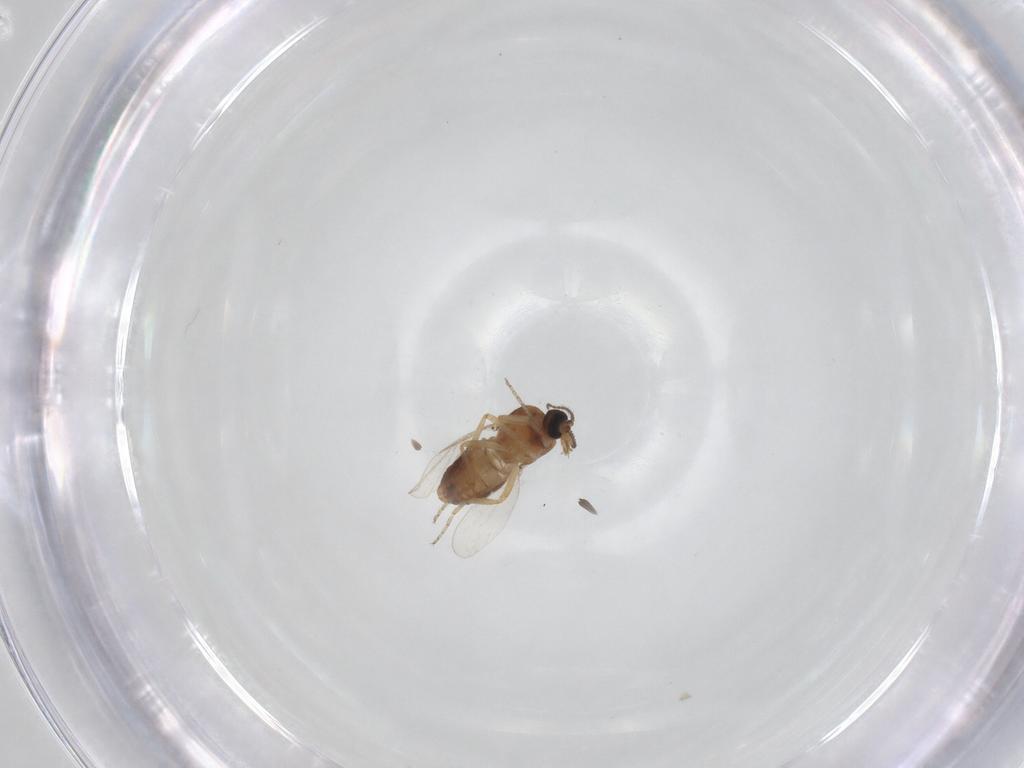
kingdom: Animalia
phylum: Arthropoda
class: Insecta
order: Diptera
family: Ceratopogonidae
